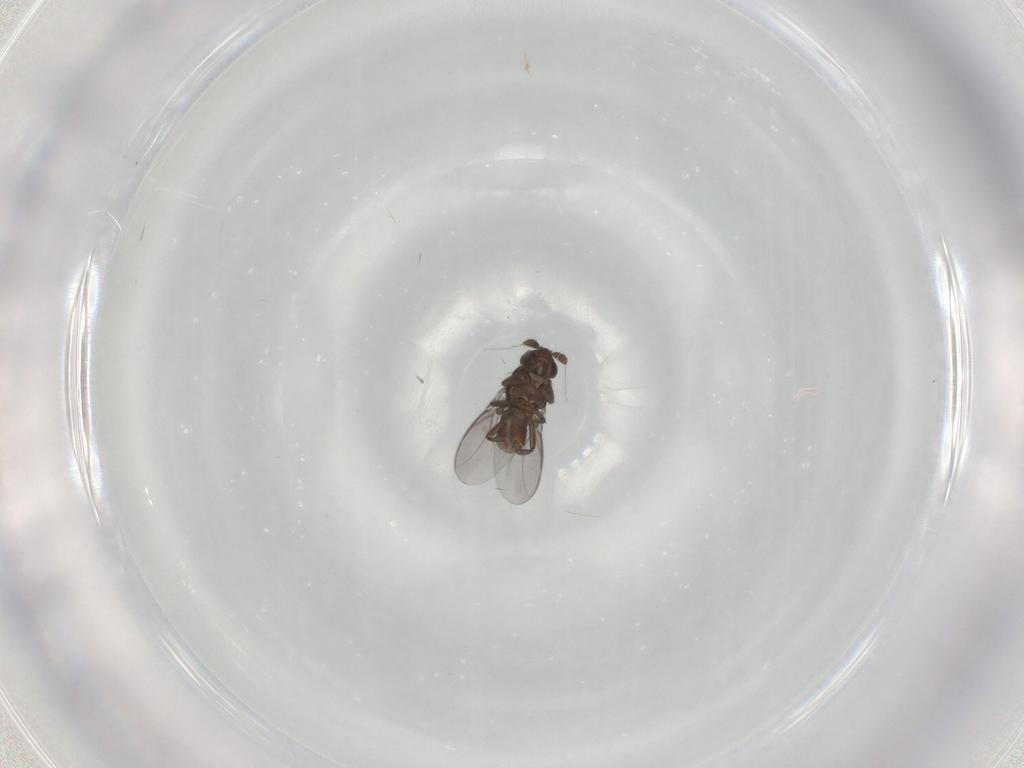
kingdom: Animalia
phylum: Arthropoda
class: Insecta
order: Diptera
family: Sphaeroceridae
